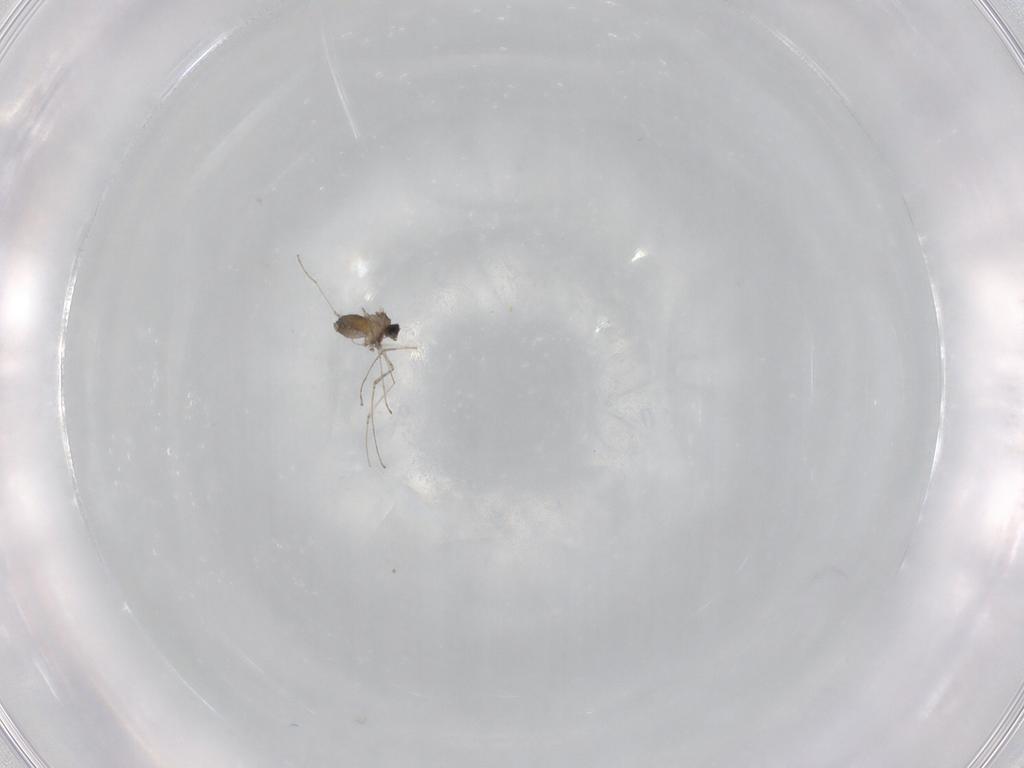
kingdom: Animalia
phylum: Arthropoda
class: Insecta
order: Diptera
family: Cecidomyiidae
